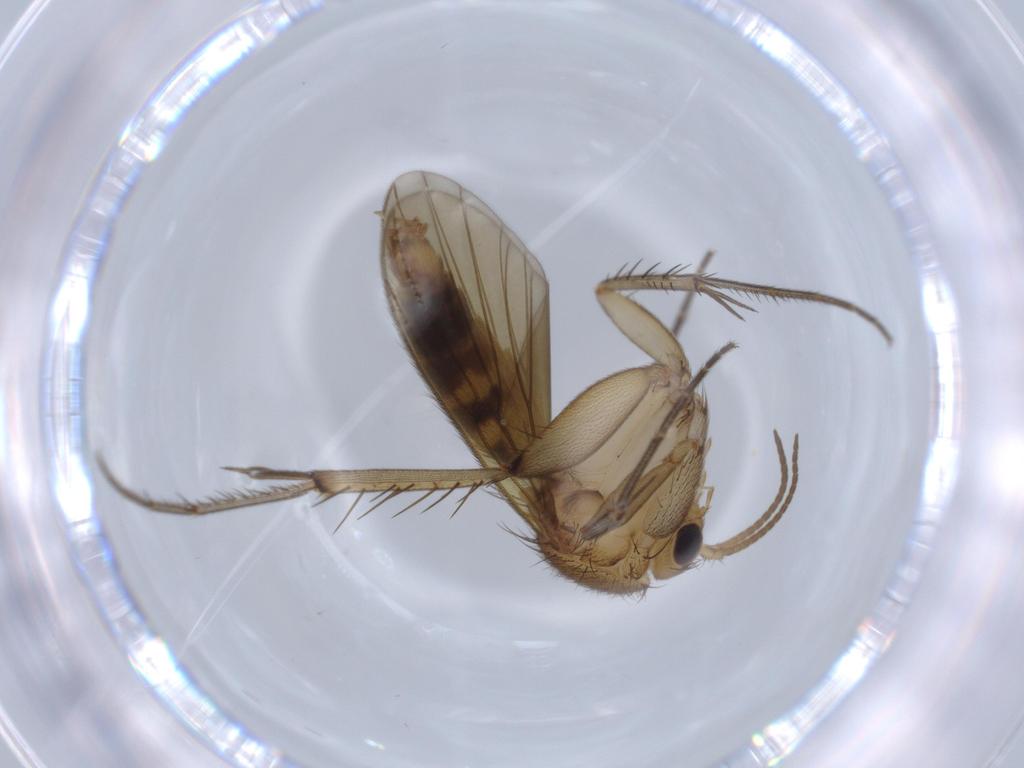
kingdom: Animalia
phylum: Arthropoda
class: Insecta
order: Diptera
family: Mycetophilidae
